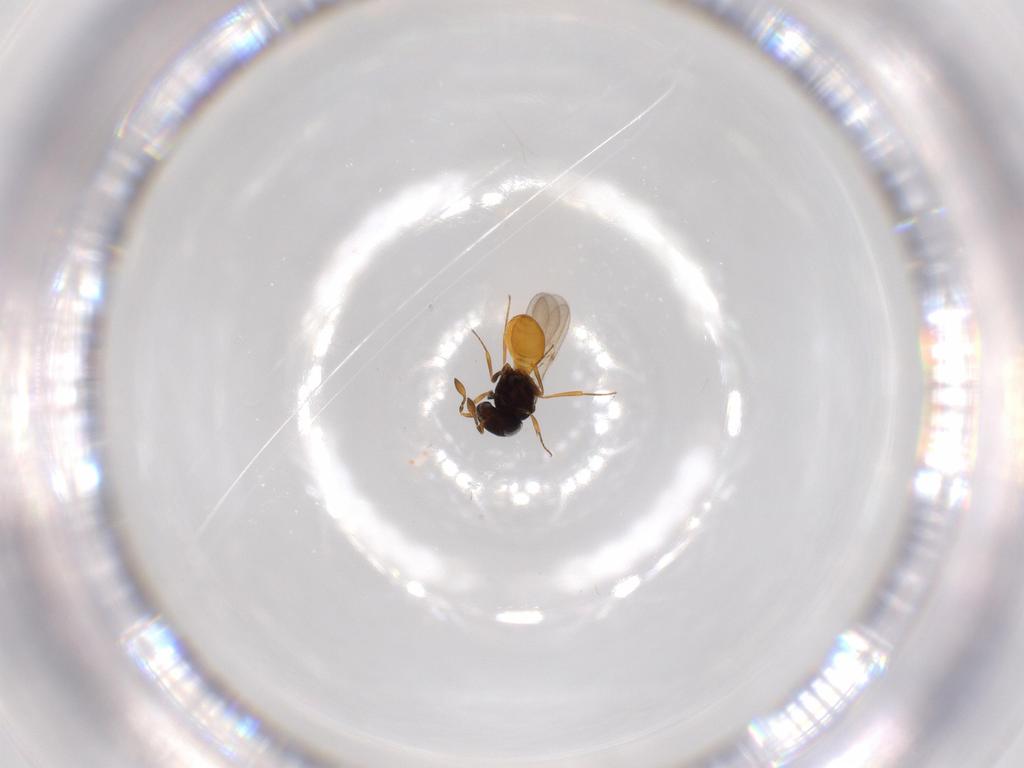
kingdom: Animalia
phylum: Arthropoda
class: Insecta
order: Hymenoptera
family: Scelionidae
